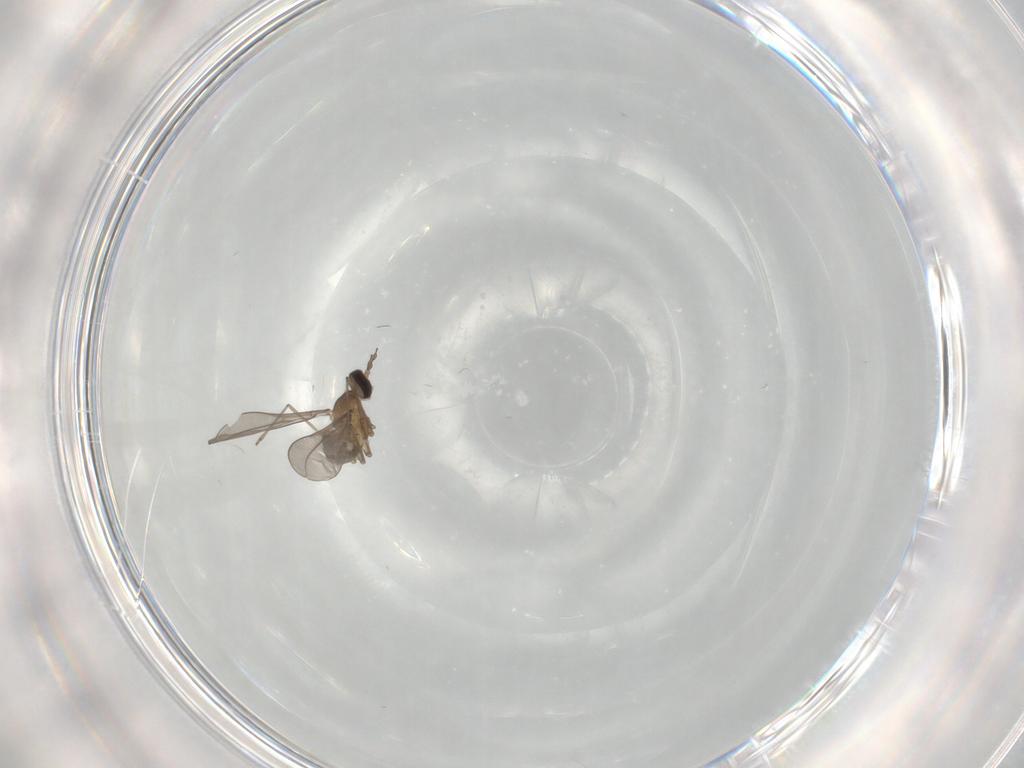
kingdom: Animalia
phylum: Arthropoda
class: Insecta
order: Diptera
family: Cecidomyiidae
